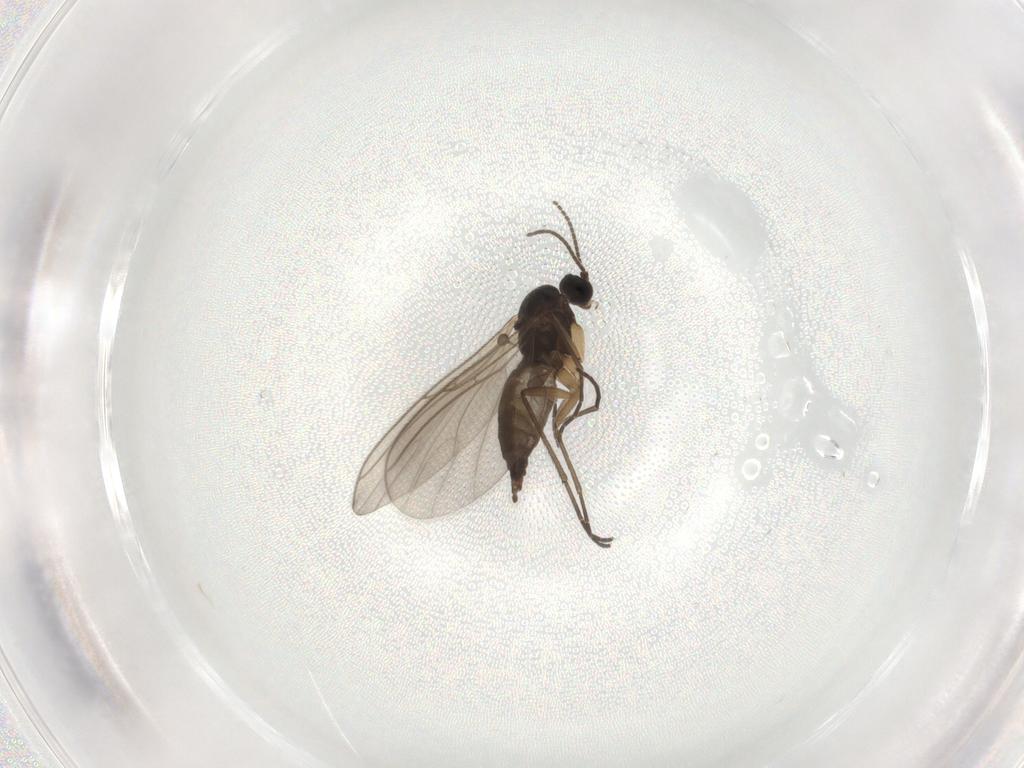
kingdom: Animalia
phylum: Arthropoda
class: Insecta
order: Diptera
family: Sciaridae
